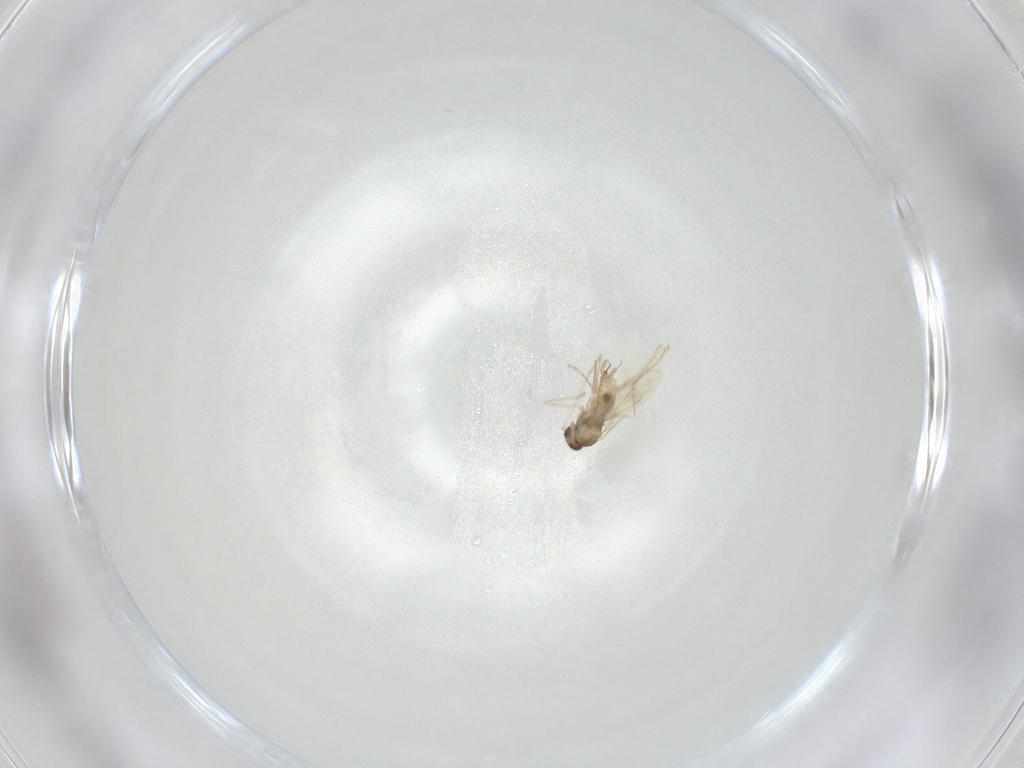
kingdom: Animalia
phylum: Arthropoda
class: Insecta
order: Diptera
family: Cecidomyiidae
